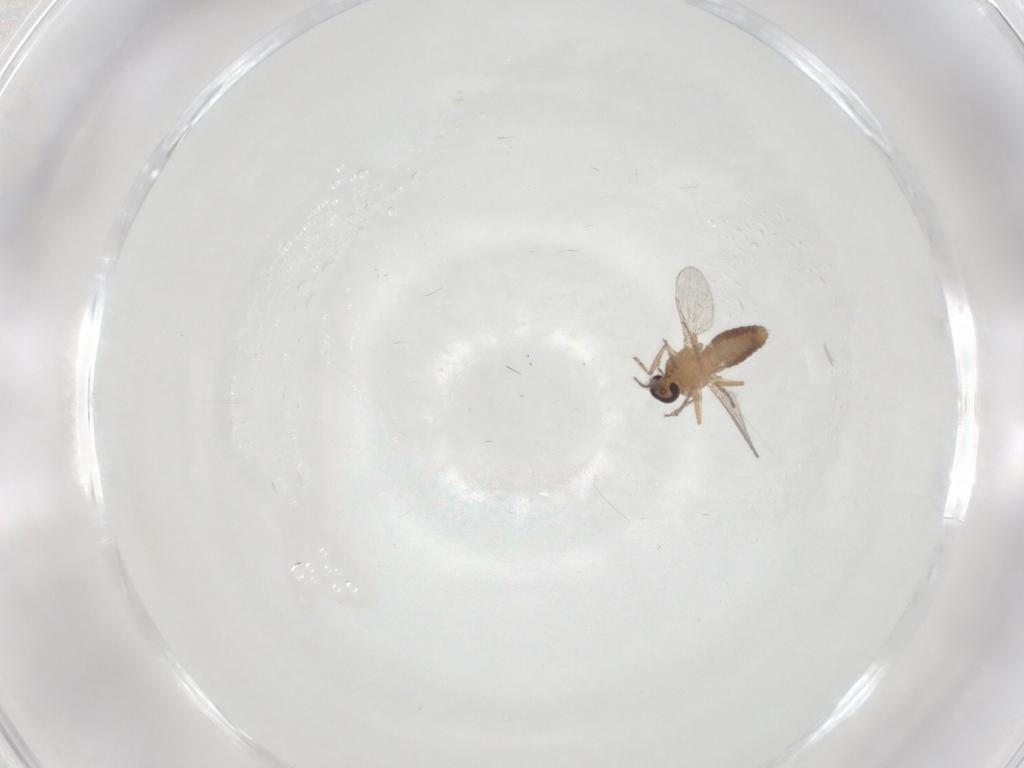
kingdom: Animalia
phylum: Arthropoda
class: Insecta
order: Diptera
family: Ceratopogonidae
